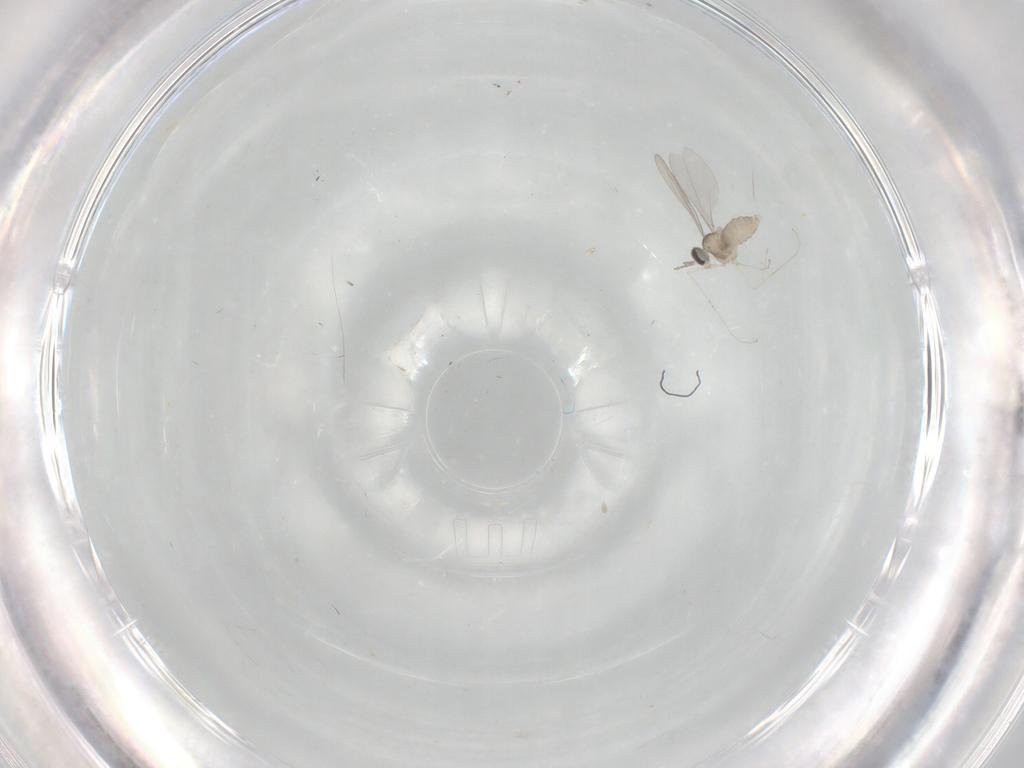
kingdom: Animalia
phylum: Arthropoda
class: Insecta
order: Diptera
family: Ceratopogonidae
